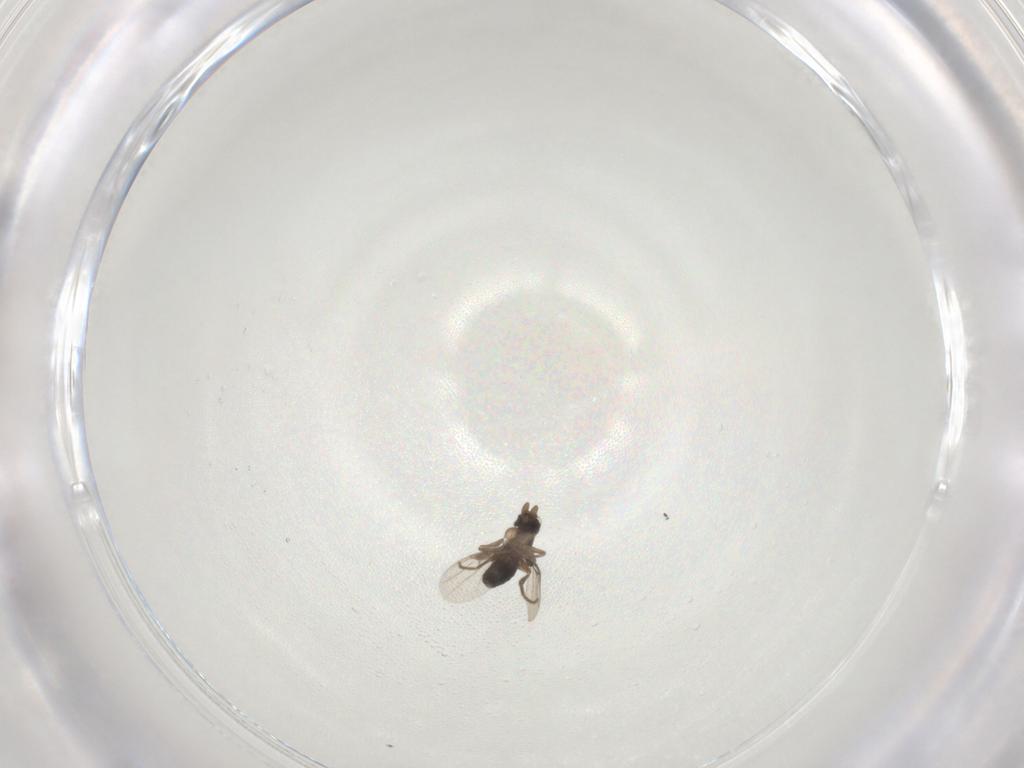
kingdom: Animalia
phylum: Arthropoda
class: Insecta
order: Diptera
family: Phoridae
